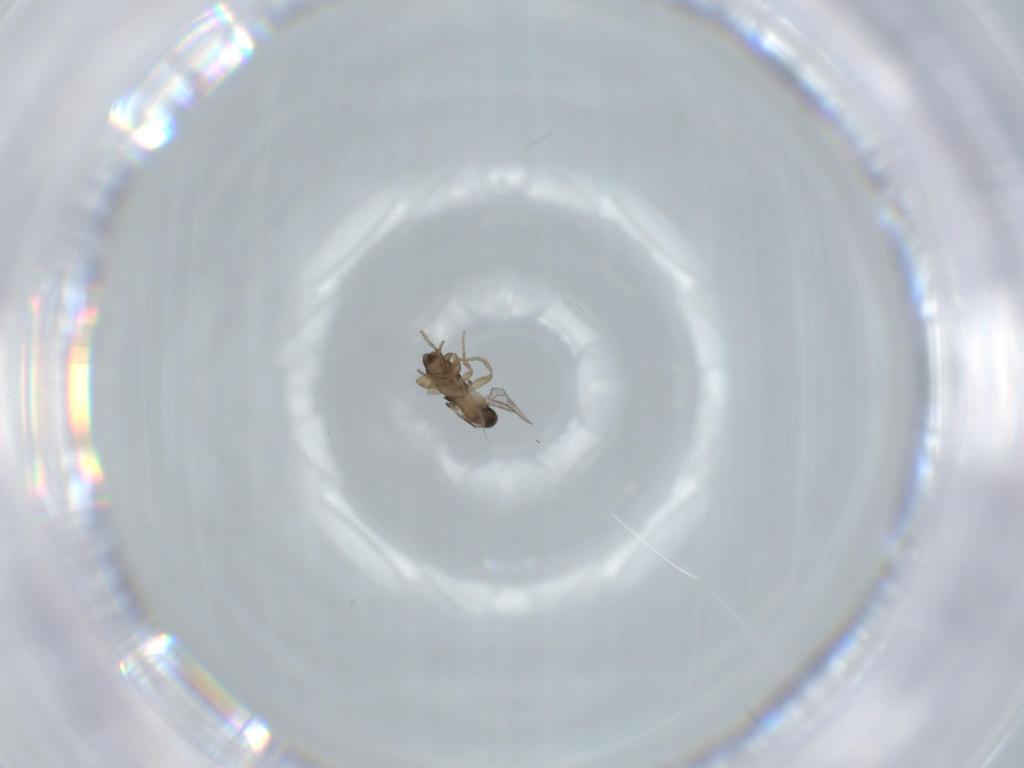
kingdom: Animalia
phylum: Arthropoda
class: Insecta
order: Diptera
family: Phoridae
